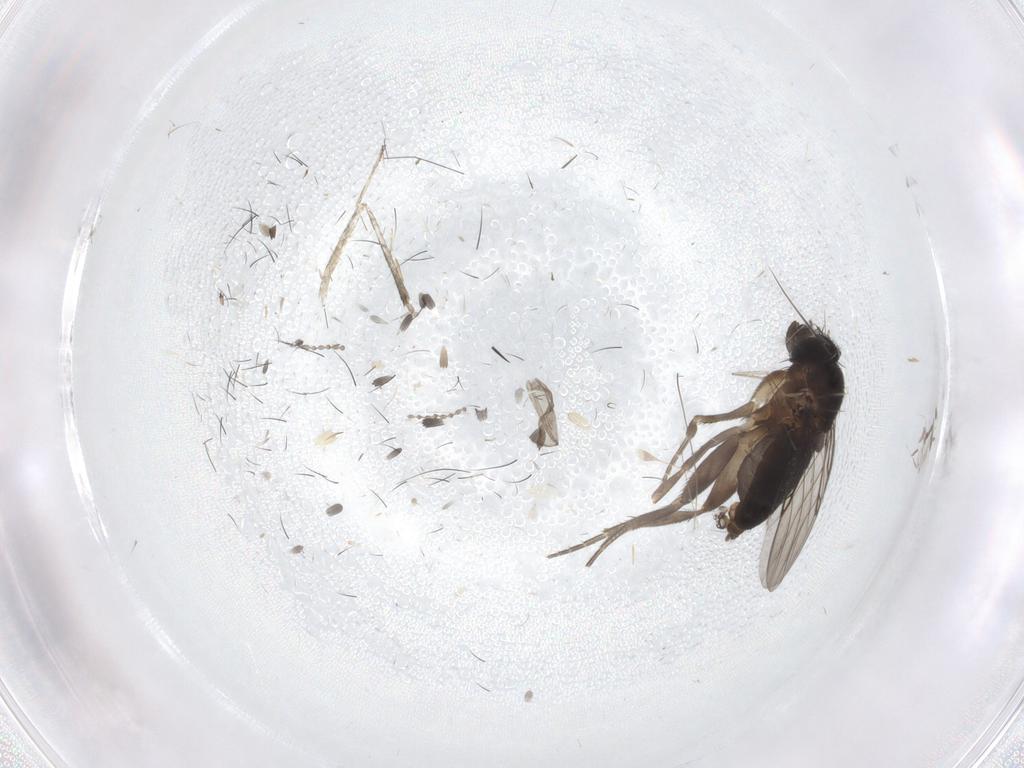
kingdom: Animalia
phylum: Arthropoda
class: Insecta
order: Diptera
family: Phoridae
